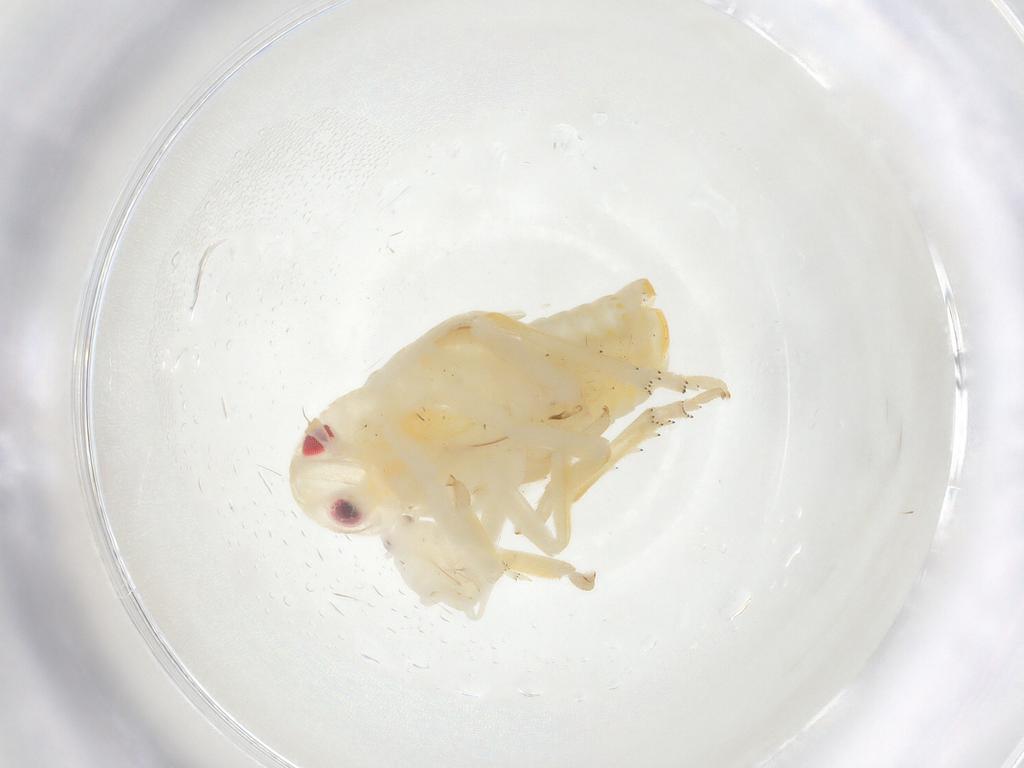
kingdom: Animalia
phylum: Arthropoda
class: Insecta
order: Hemiptera
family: Flatidae
